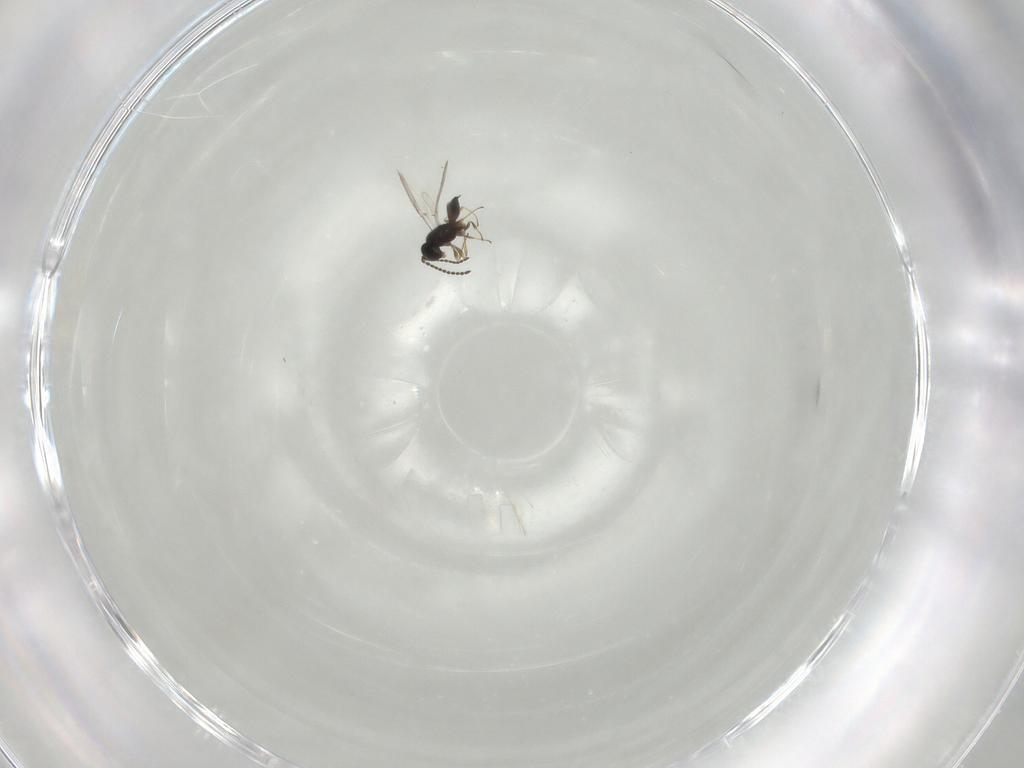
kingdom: Animalia
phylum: Arthropoda
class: Insecta
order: Hymenoptera
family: Scelionidae
